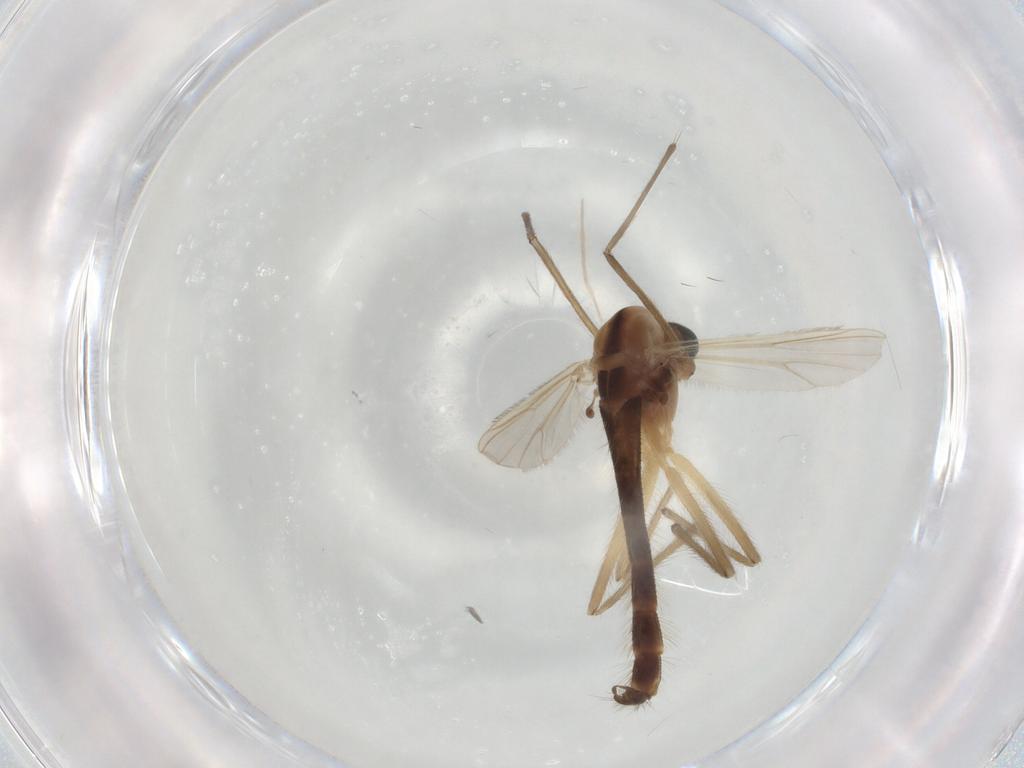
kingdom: Animalia
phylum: Arthropoda
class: Insecta
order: Diptera
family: Chironomidae
